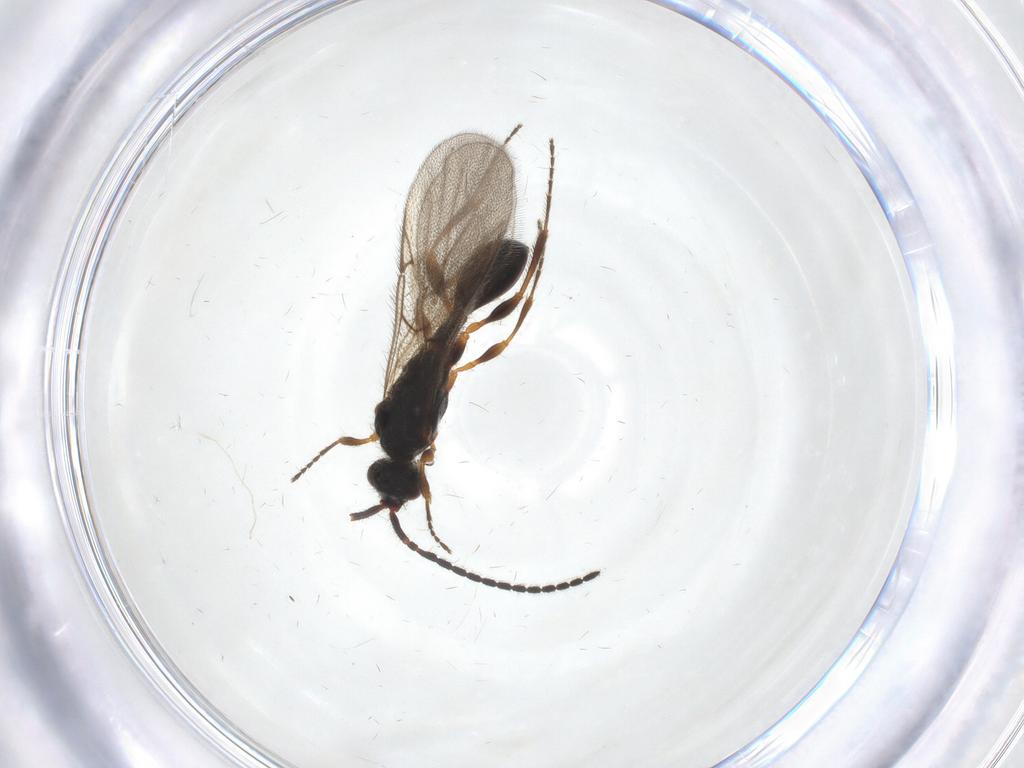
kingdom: Animalia
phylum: Arthropoda
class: Insecta
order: Hymenoptera
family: Diapriidae
